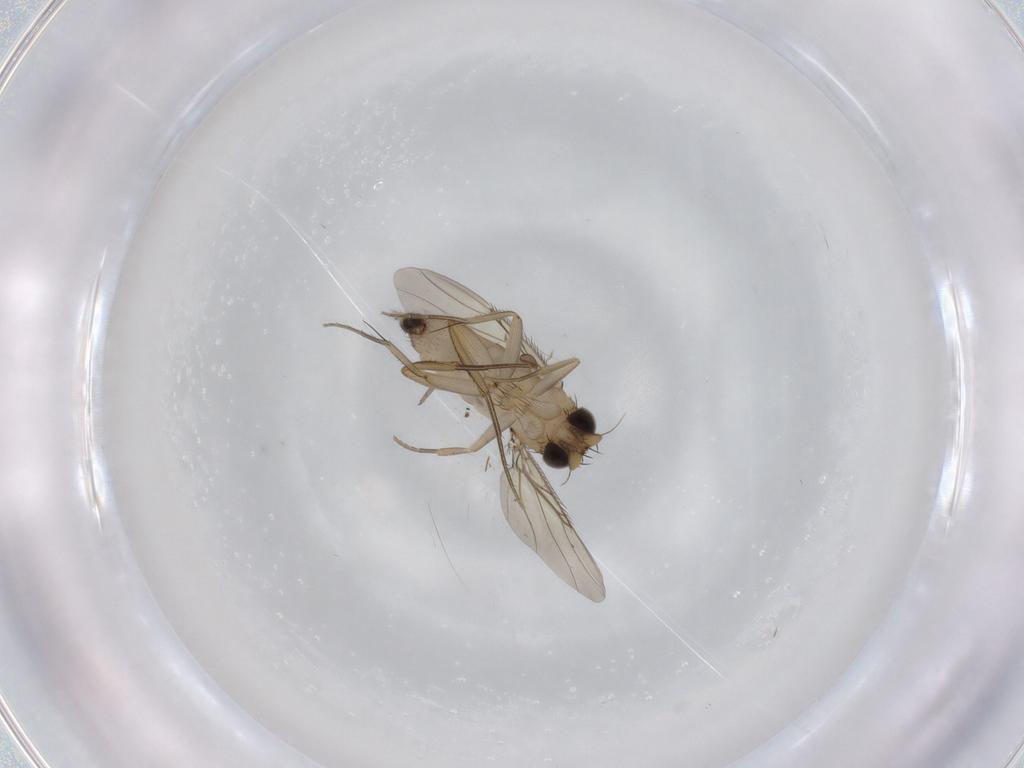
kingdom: Animalia
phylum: Arthropoda
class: Insecta
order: Diptera
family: Phoridae
